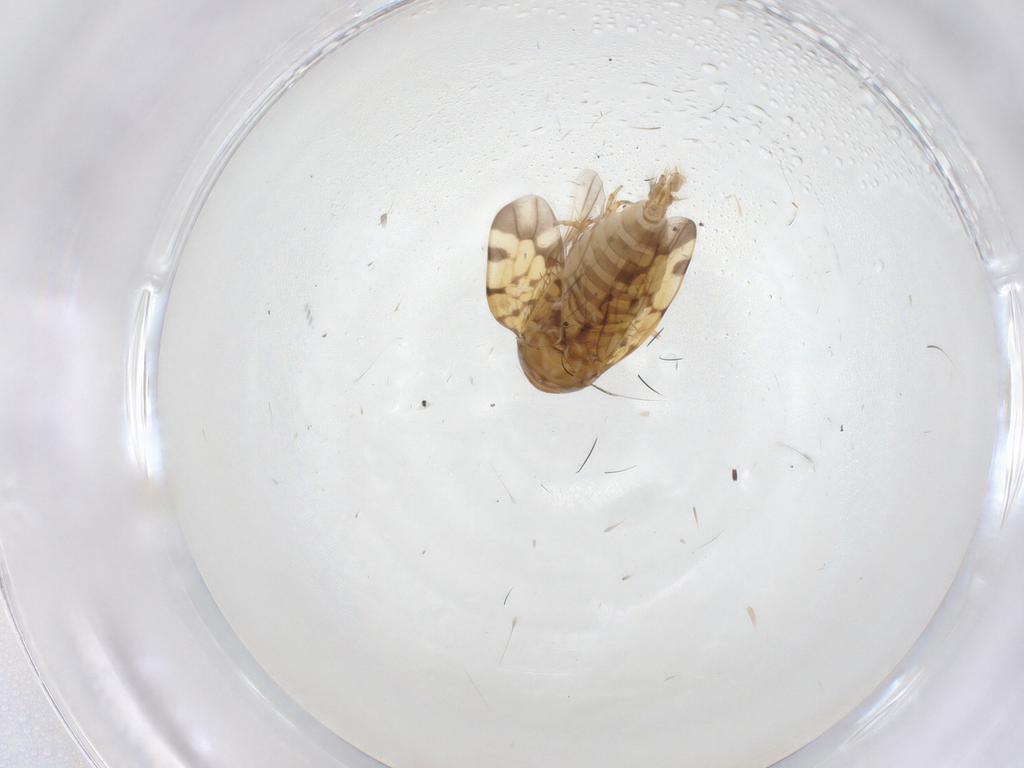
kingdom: Animalia
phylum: Arthropoda
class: Insecta
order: Hemiptera
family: Cicadellidae
